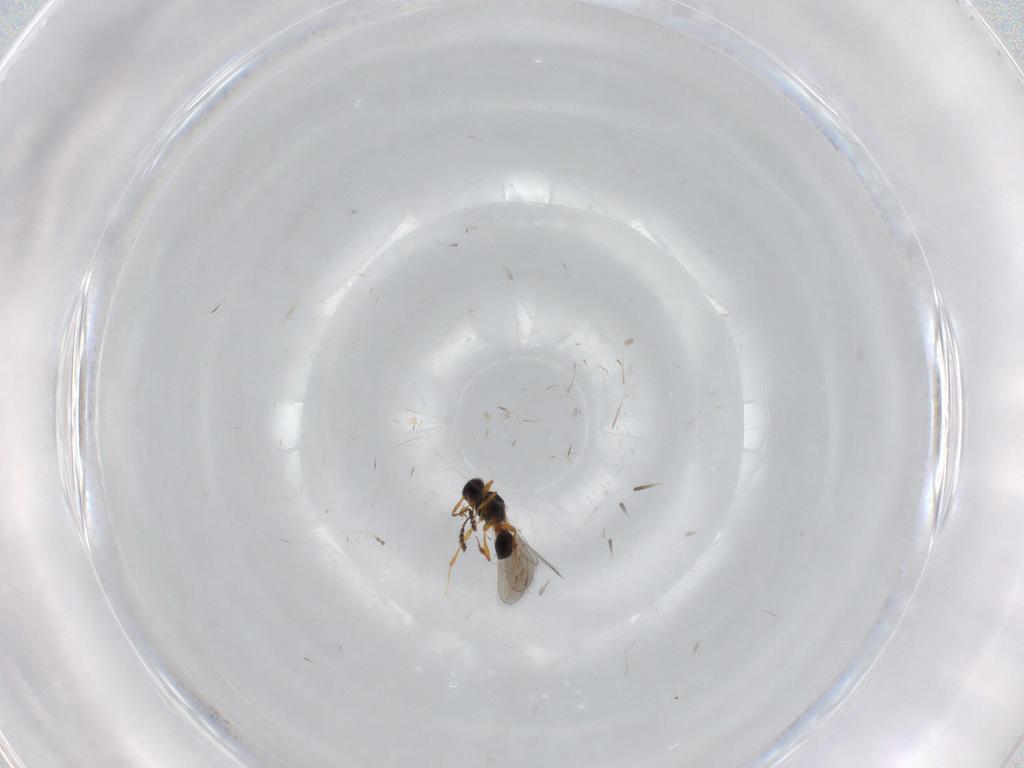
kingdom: Animalia
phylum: Arthropoda
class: Insecta
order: Hymenoptera
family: Platygastridae
